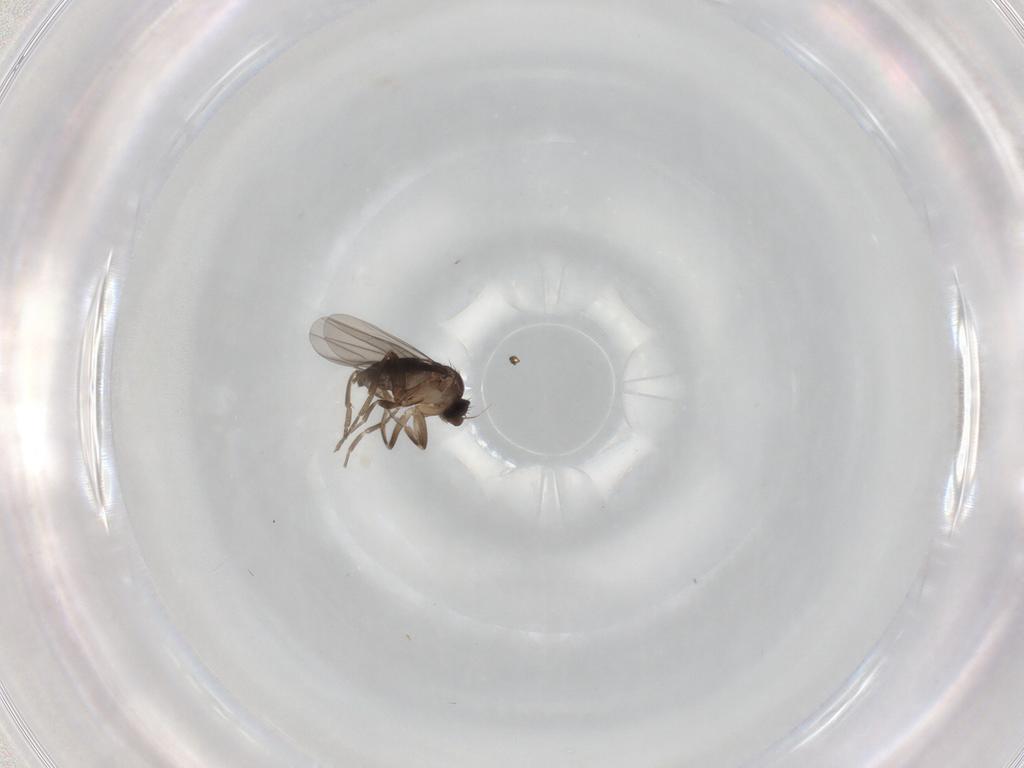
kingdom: Animalia
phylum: Arthropoda
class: Insecta
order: Diptera
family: Phoridae
